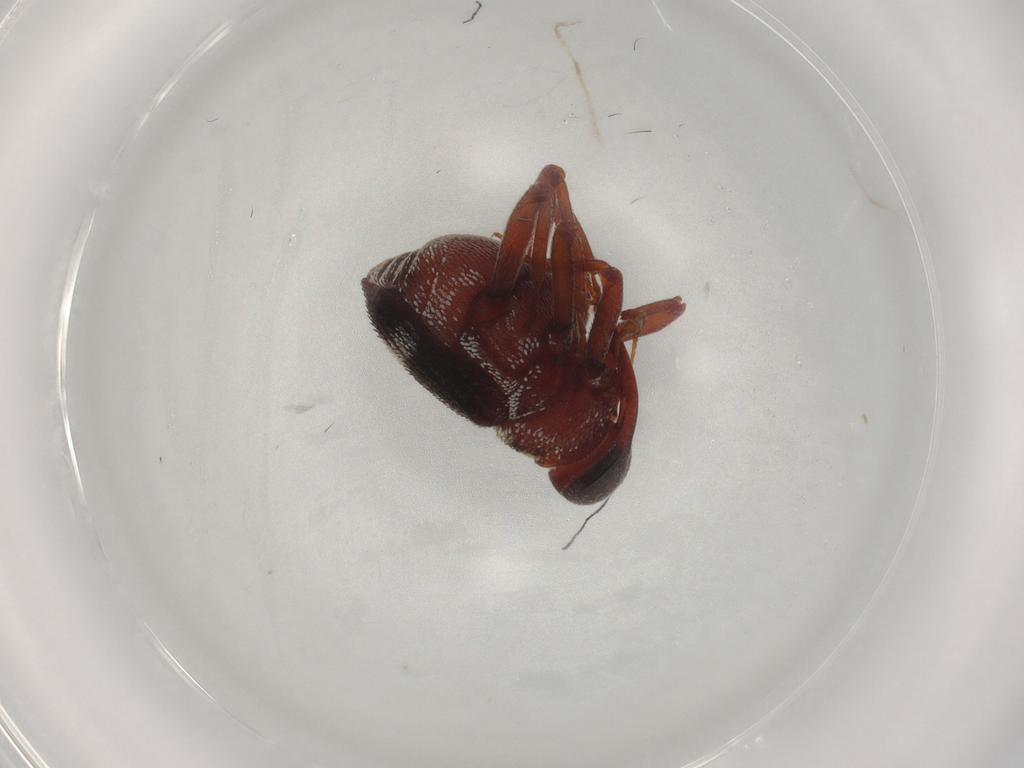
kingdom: Animalia
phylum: Arthropoda
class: Insecta
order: Coleoptera
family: Curculionidae
